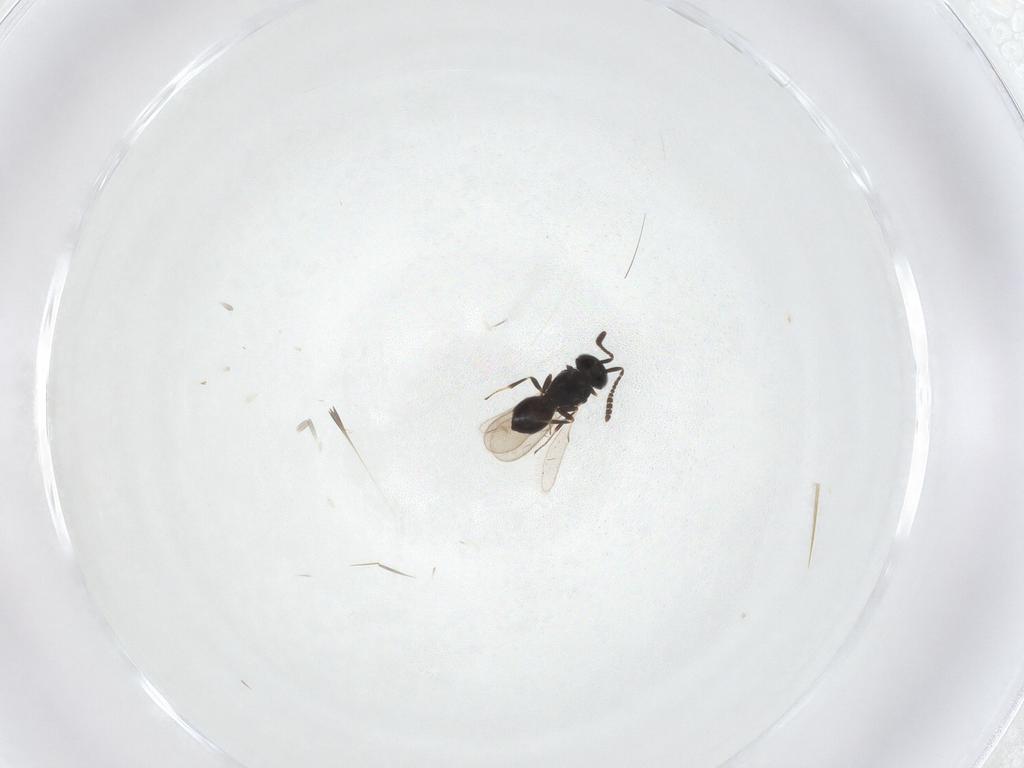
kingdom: Animalia
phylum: Arthropoda
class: Insecta
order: Hymenoptera
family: Scelionidae
